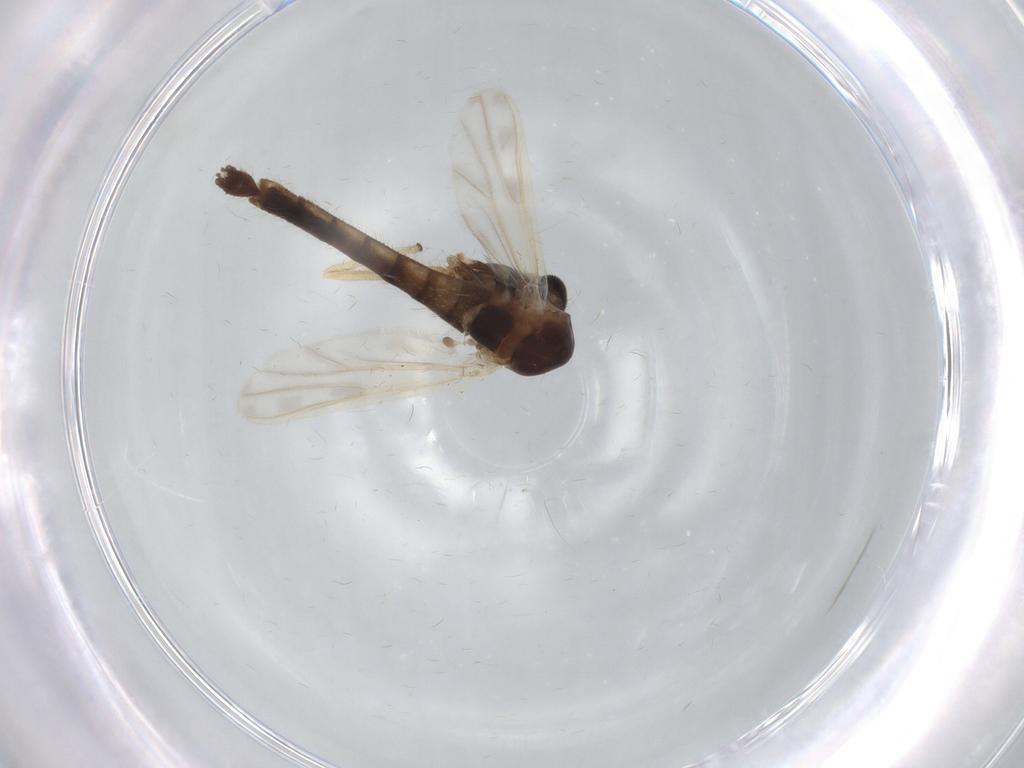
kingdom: Animalia
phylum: Arthropoda
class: Insecta
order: Diptera
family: Chironomidae
